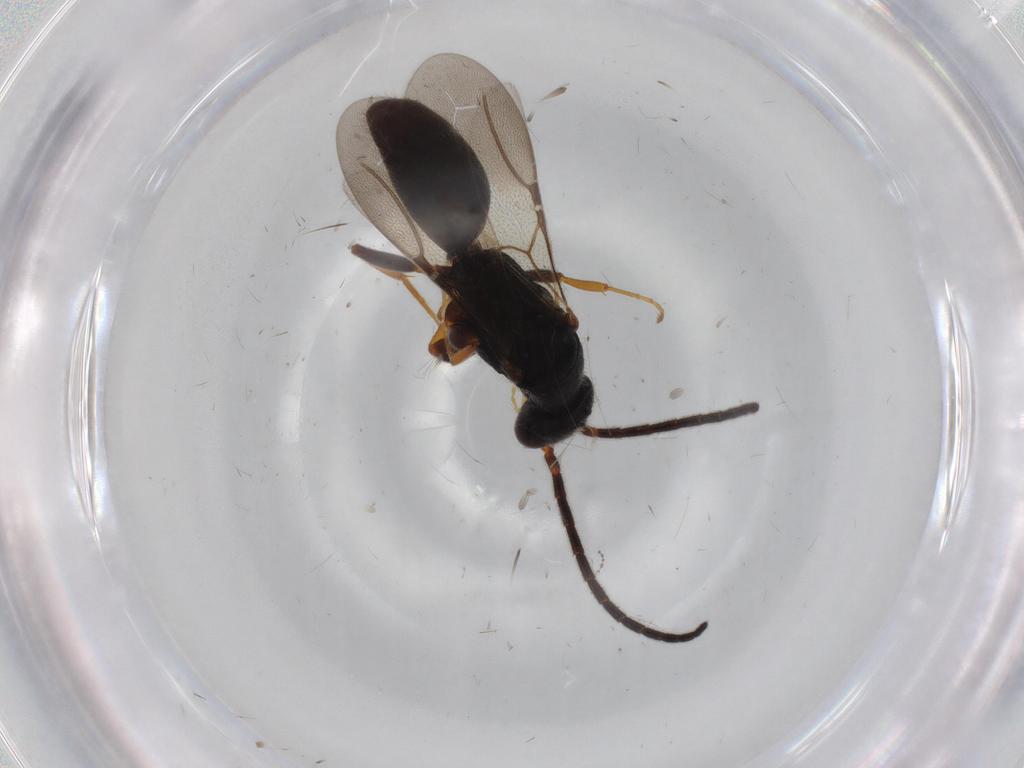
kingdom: Animalia
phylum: Arthropoda
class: Insecta
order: Hymenoptera
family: Bethylidae
